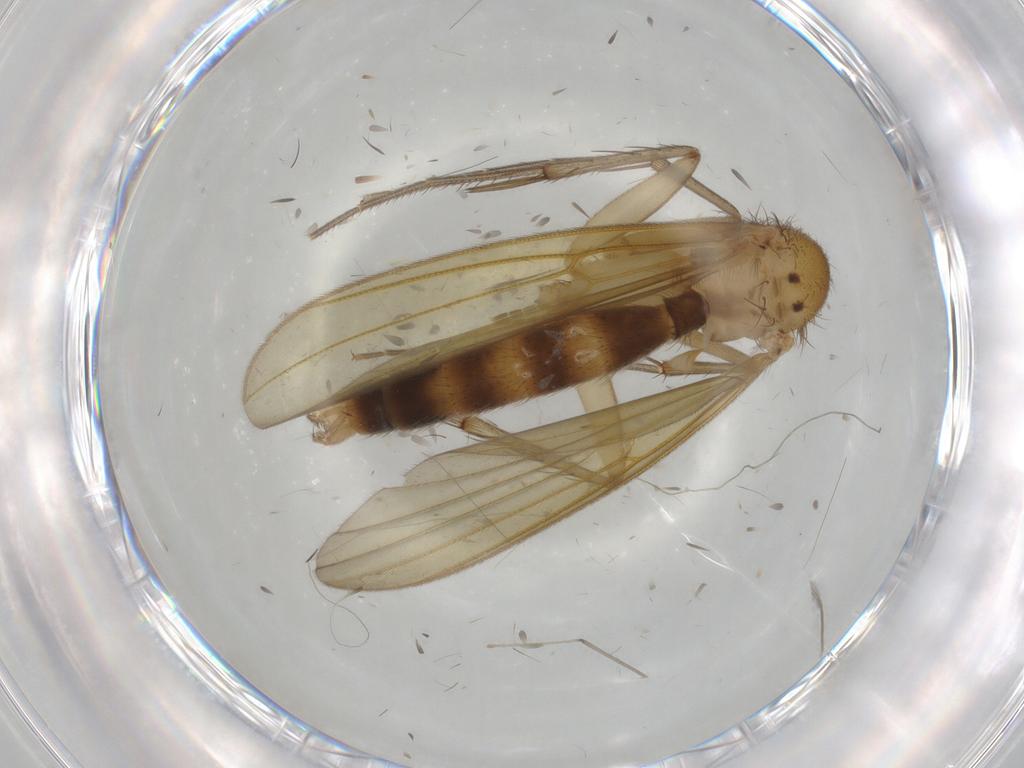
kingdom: Animalia
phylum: Arthropoda
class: Insecta
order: Diptera
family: Mycetophilidae
